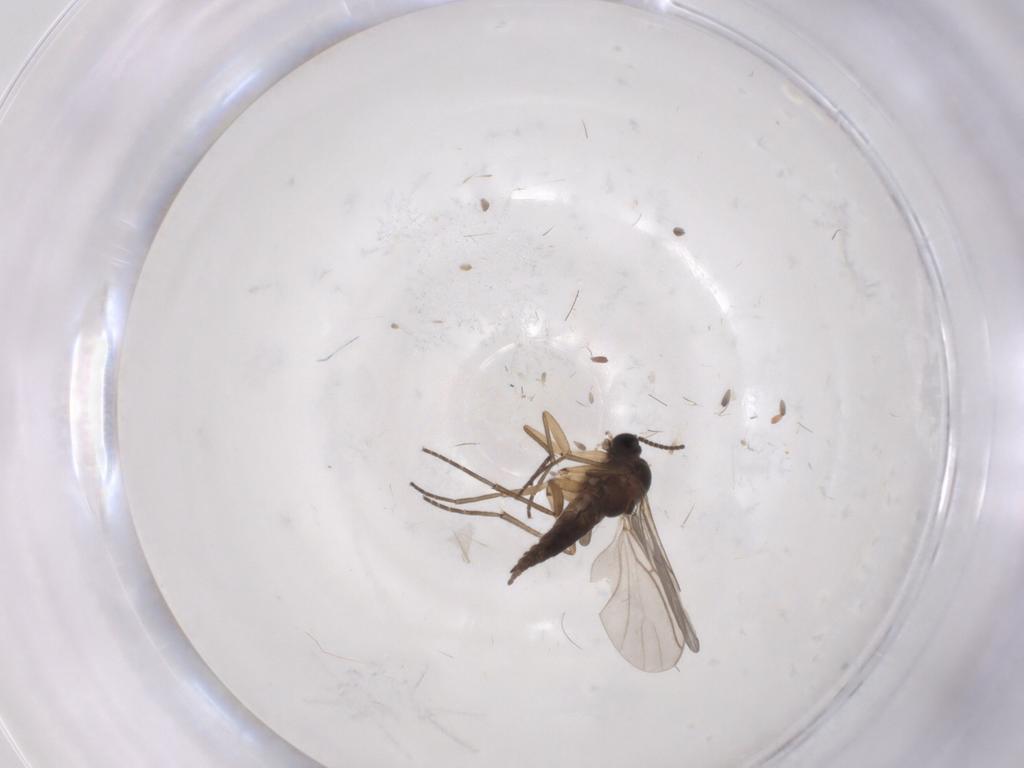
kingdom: Animalia
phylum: Arthropoda
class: Insecta
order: Diptera
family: Sciaridae
